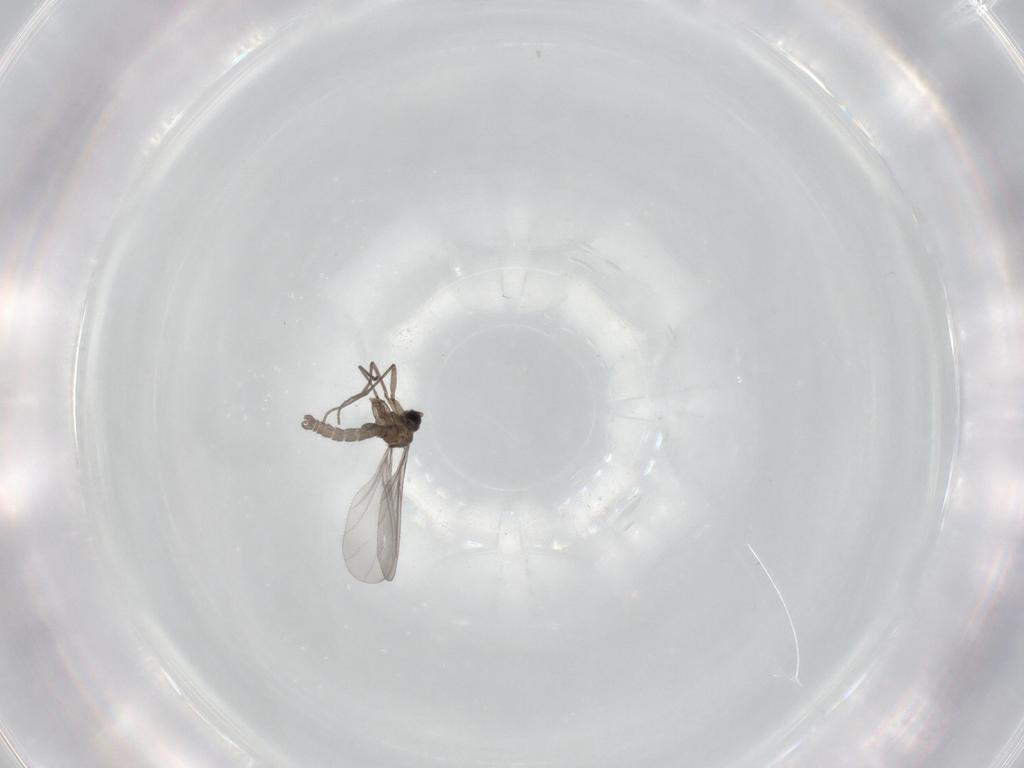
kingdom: Animalia
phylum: Arthropoda
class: Insecta
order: Diptera
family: Sciaridae
